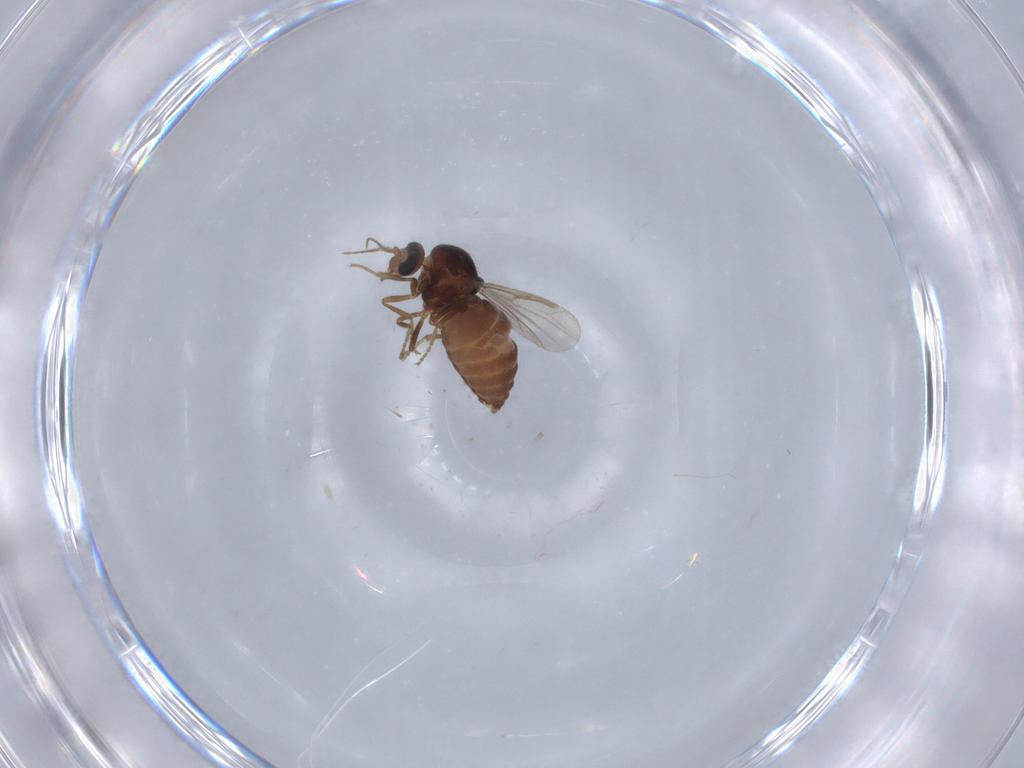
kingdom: Animalia
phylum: Arthropoda
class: Insecta
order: Diptera
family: Ceratopogonidae
